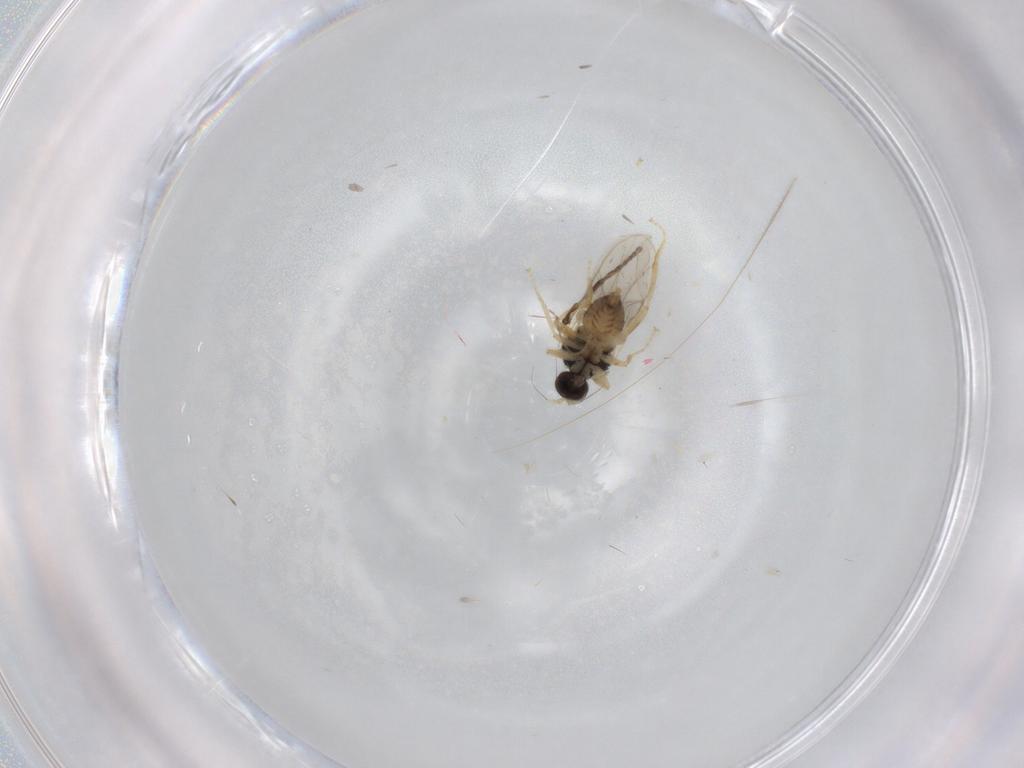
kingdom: Animalia
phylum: Arthropoda
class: Insecta
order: Diptera
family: Hybotidae
